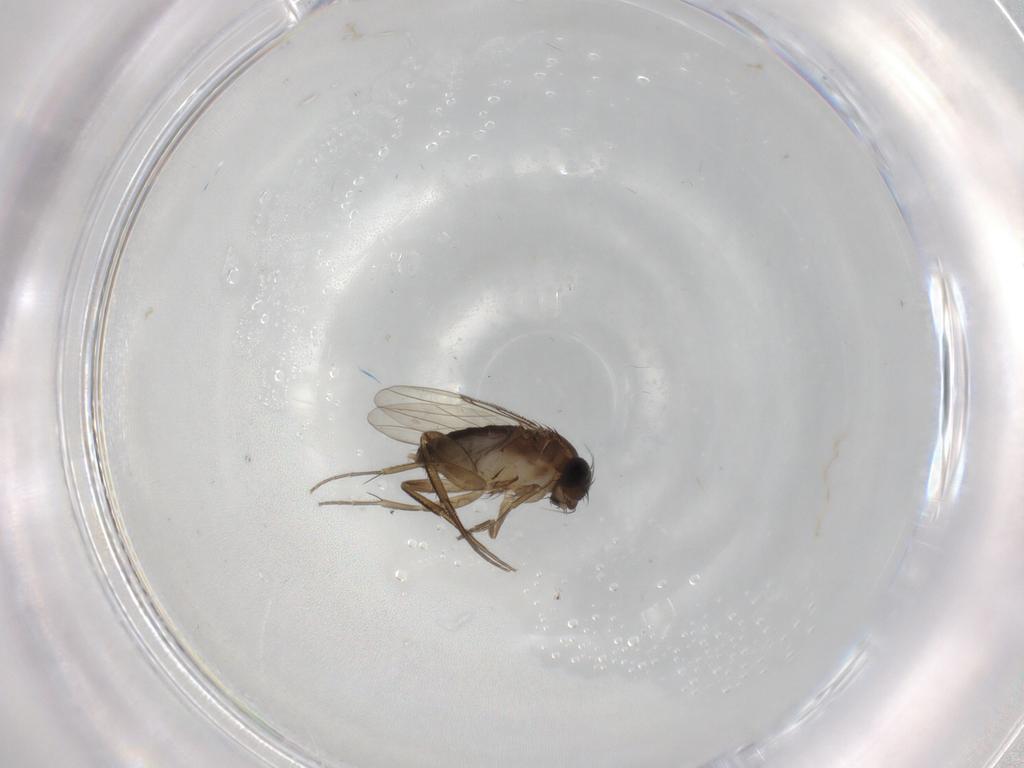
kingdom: Animalia
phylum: Arthropoda
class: Insecta
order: Diptera
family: Phoridae
